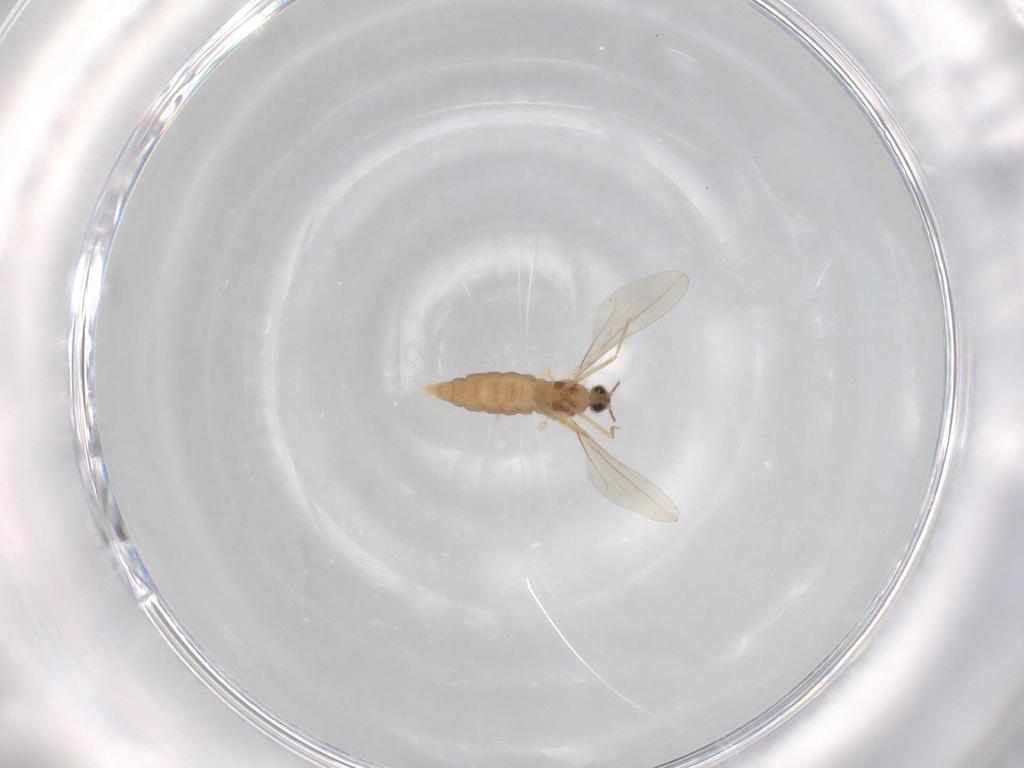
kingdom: Animalia
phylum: Arthropoda
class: Insecta
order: Diptera
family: Cecidomyiidae
